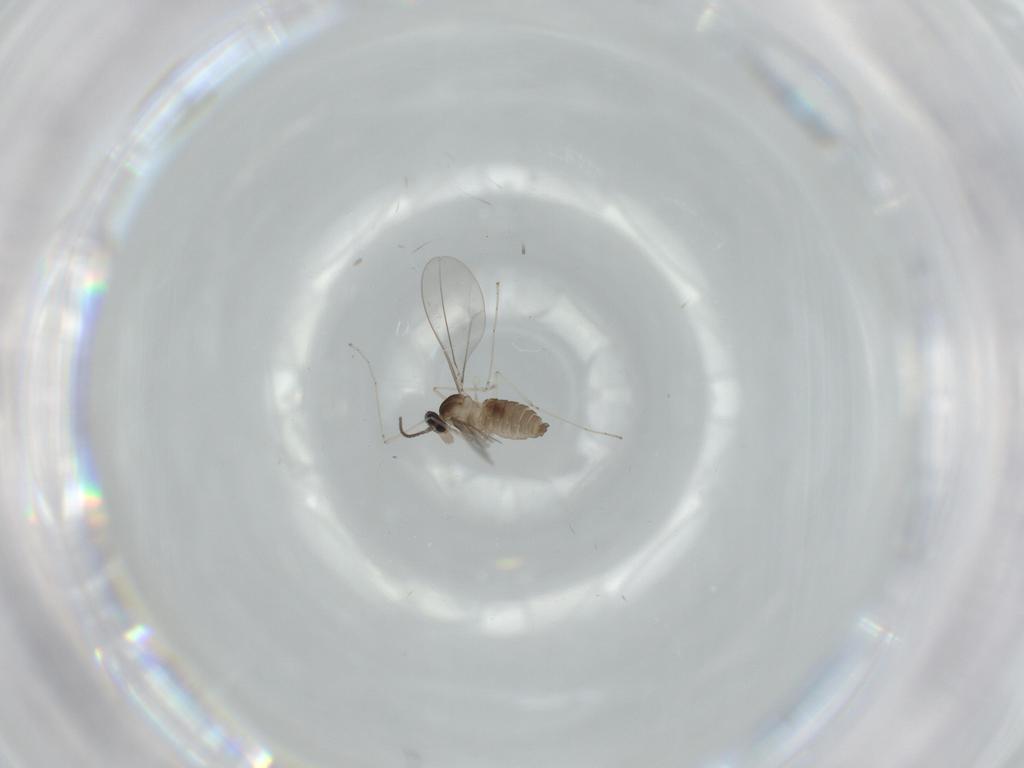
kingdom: Animalia
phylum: Arthropoda
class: Insecta
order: Diptera
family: Cecidomyiidae
